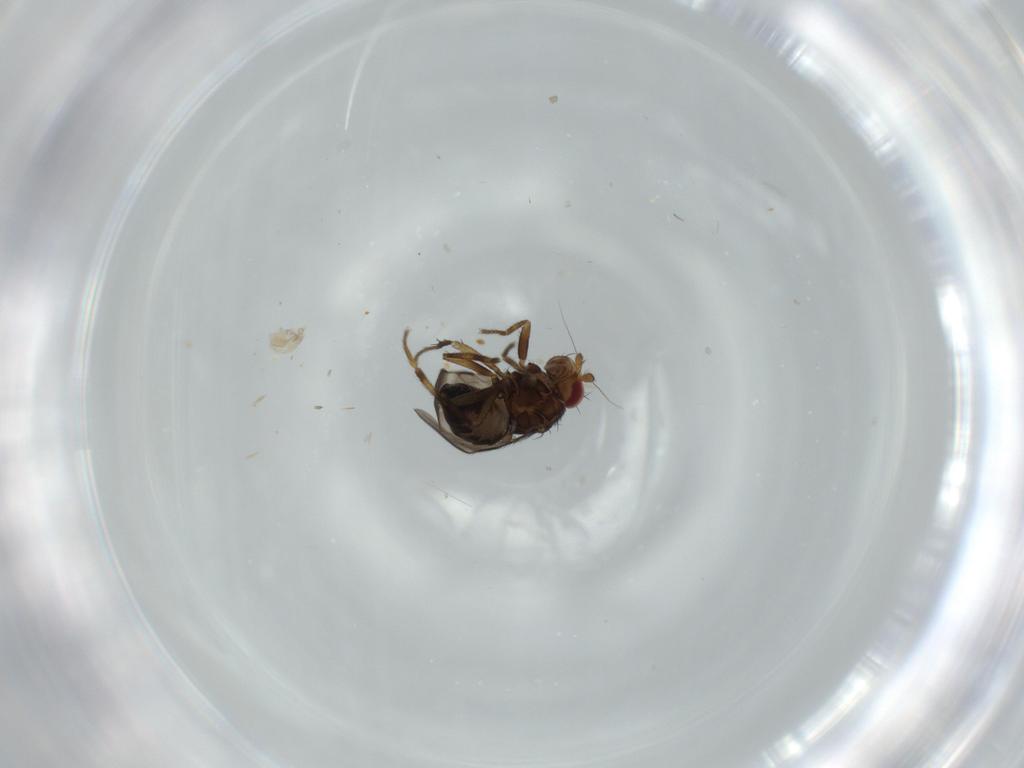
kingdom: Animalia
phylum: Arthropoda
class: Insecta
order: Diptera
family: Cecidomyiidae
